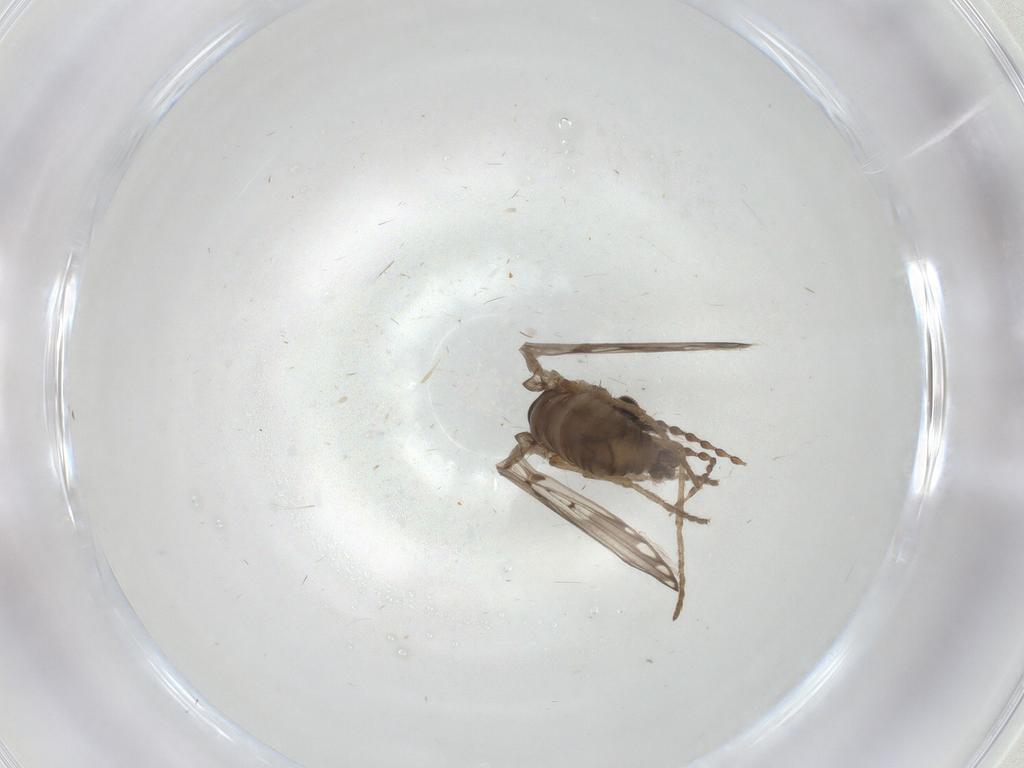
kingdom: Animalia
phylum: Arthropoda
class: Insecta
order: Diptera
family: Psychodidae
